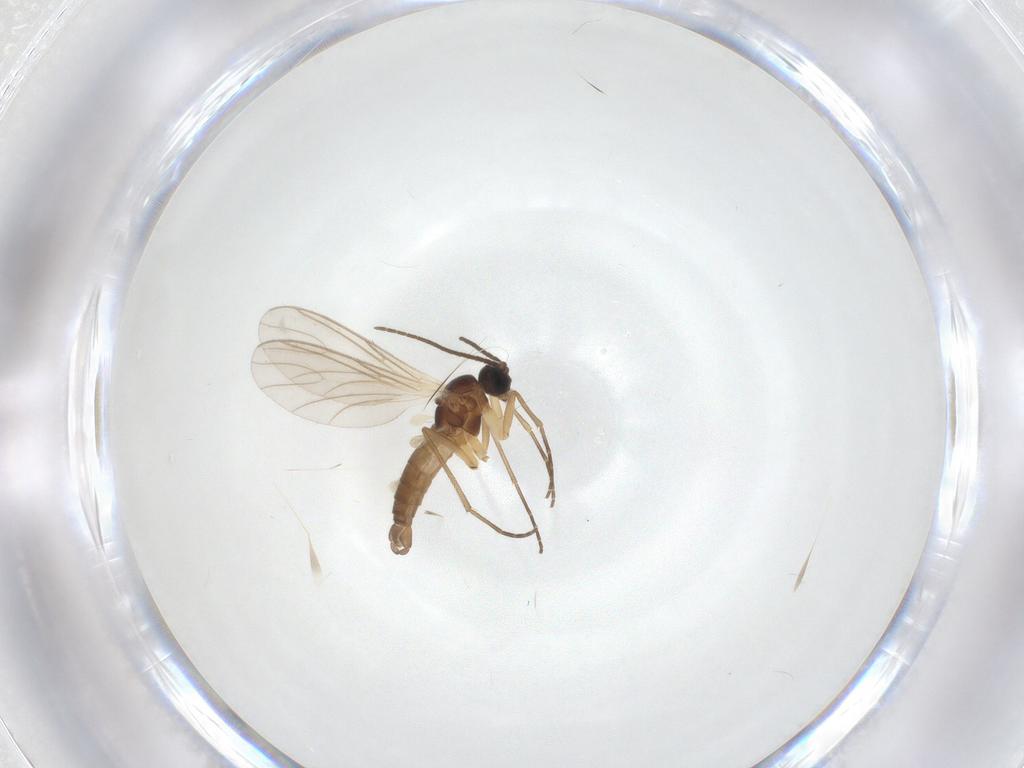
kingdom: Animalia
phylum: Arthropoda
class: Insecta
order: Diptera
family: Sciaridae
